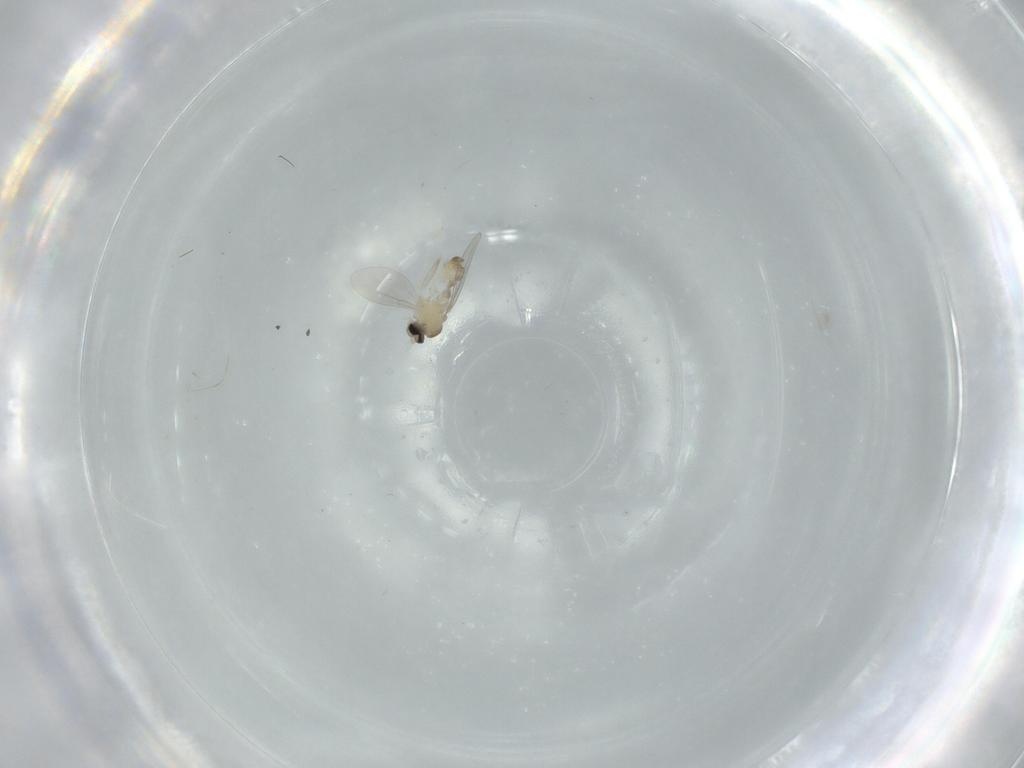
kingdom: Animalia
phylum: Arthropoda
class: Insecta
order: Diptera
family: Cecidomyiidae
